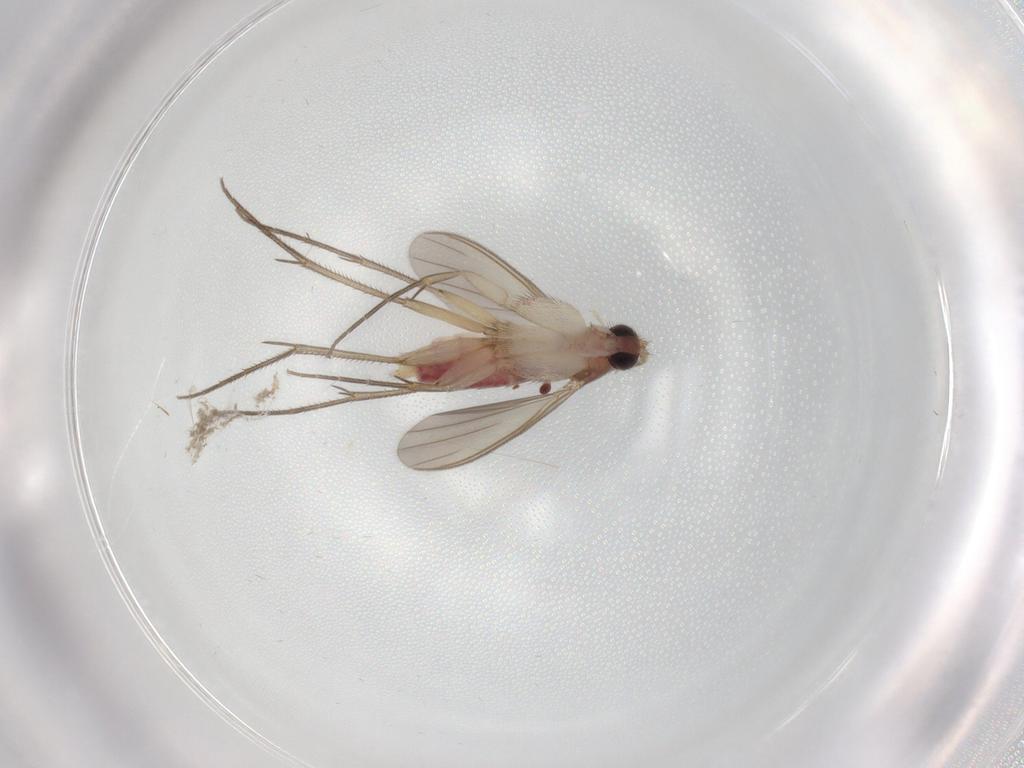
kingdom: Animalia
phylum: Arthropoda
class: Insecta
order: Diptera
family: Mycetophilidae
